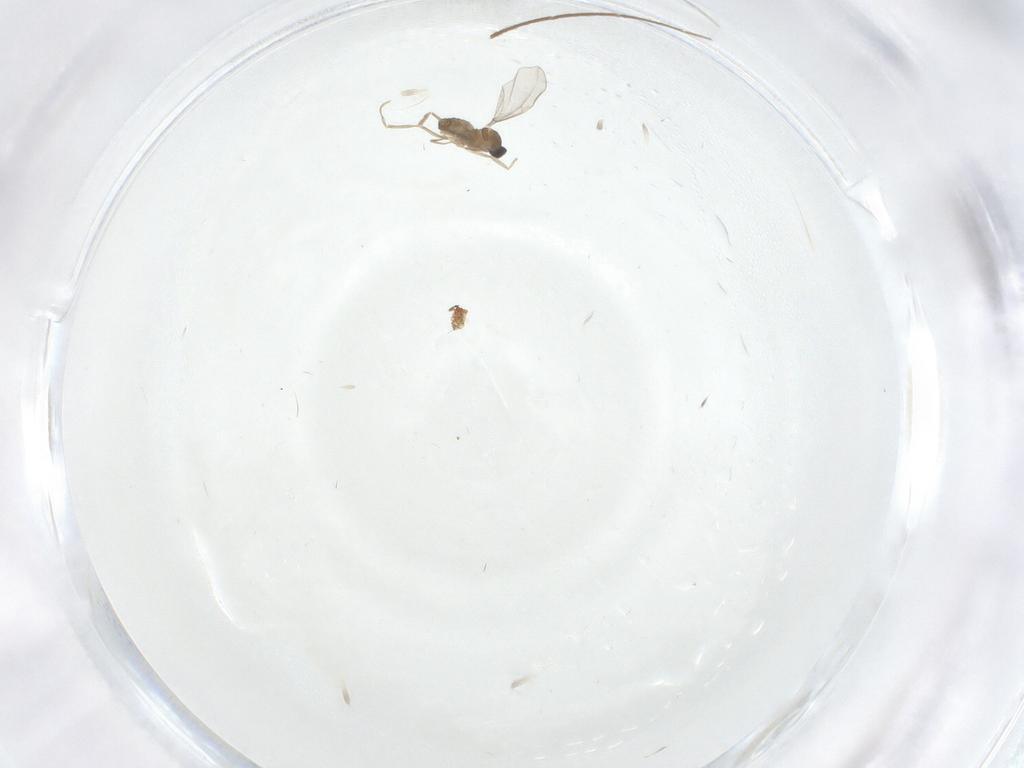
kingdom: Animalia
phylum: Arthropoda
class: Insecta
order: Diptera
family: Cecidomyiidae
